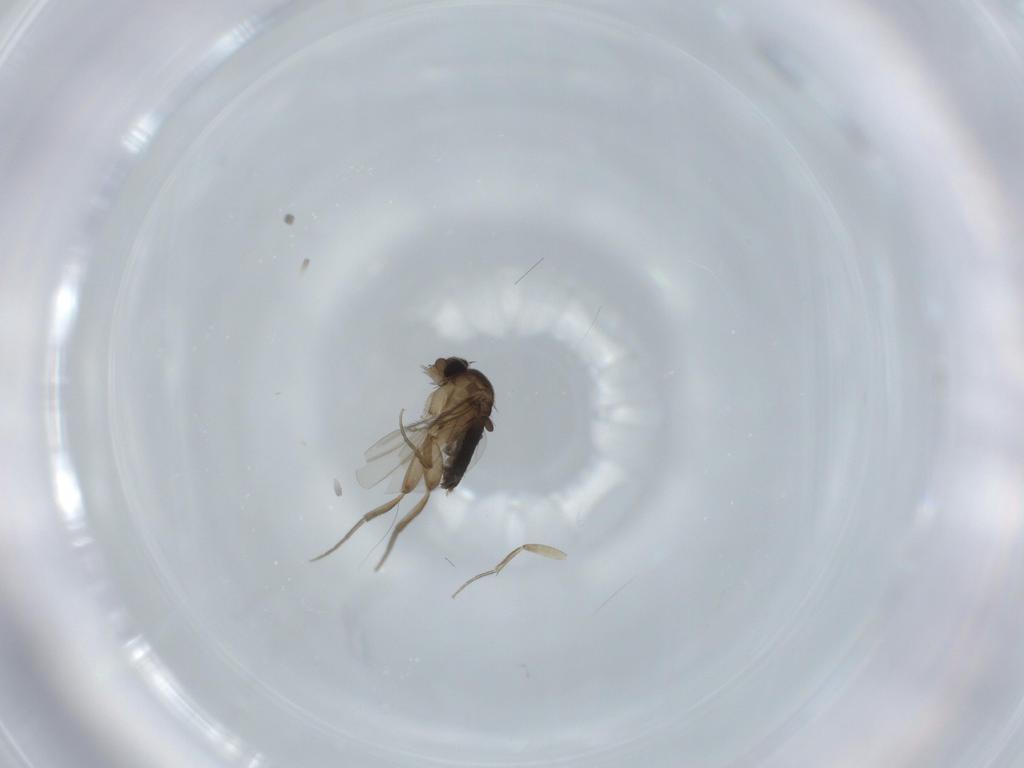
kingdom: Animalia
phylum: Arthropoda
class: Insecta
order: Diptera
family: Phoridae
